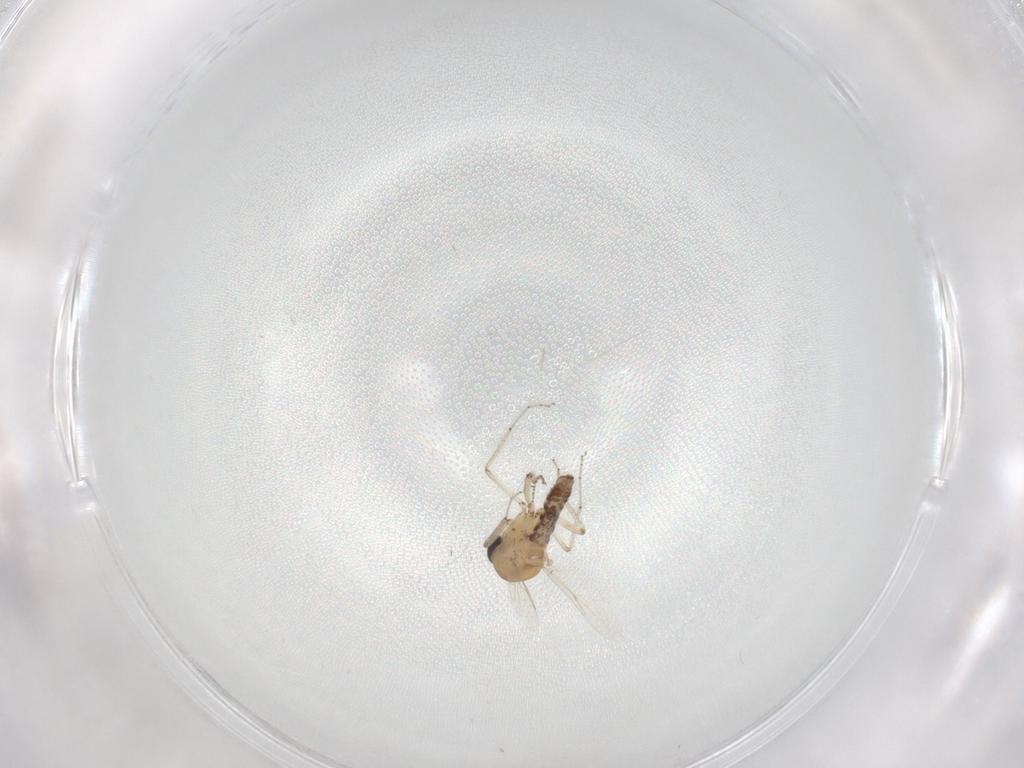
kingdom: Animalia
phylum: Arthropoda
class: Insecta
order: Diptera
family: Ceratopogonidae
